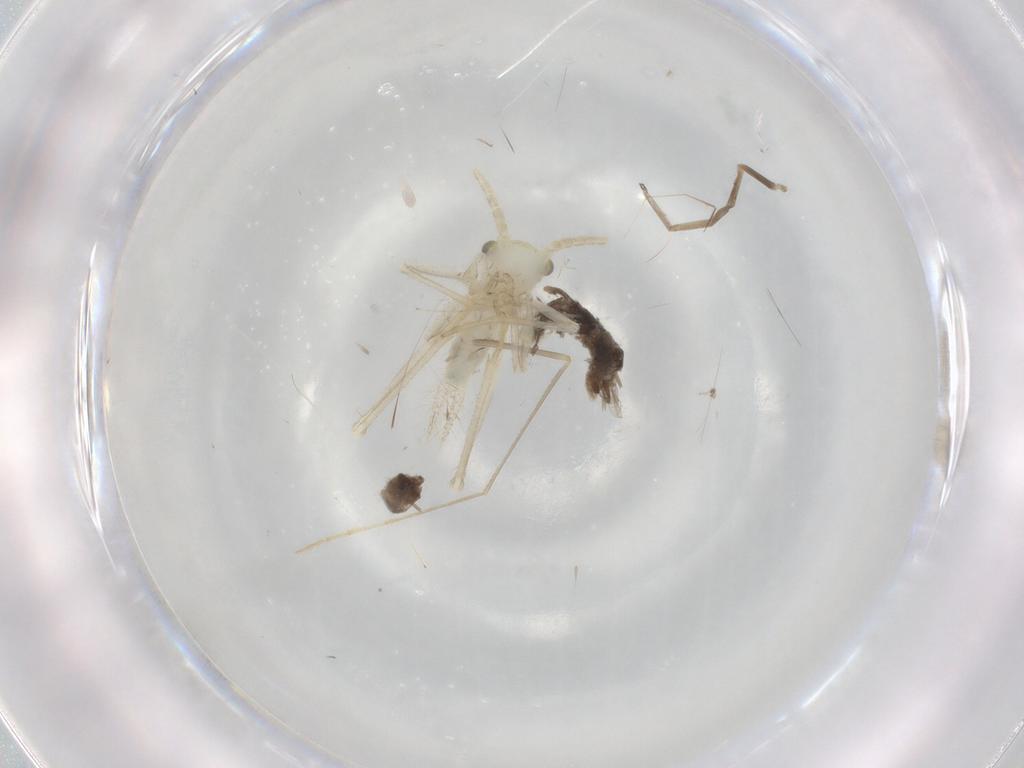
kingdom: Animalia
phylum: Arthropoda
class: Insecta
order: Orthoptera
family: Trigonidiidae
